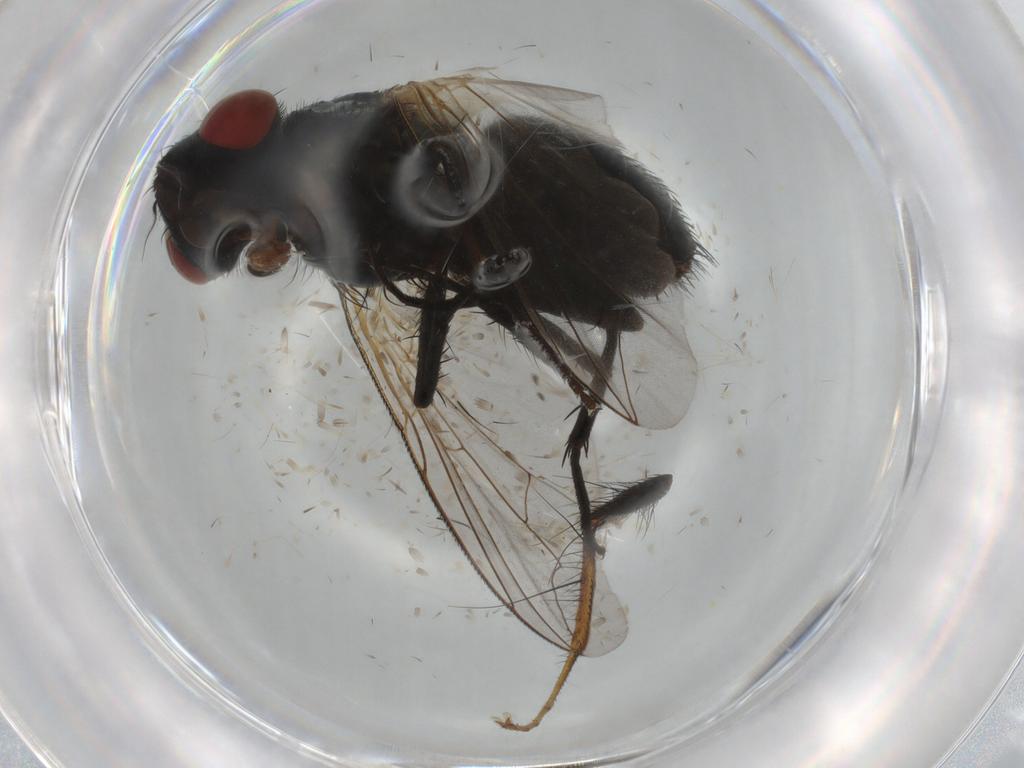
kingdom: Animalia
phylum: Arthropoda
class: Insecta
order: Diptera
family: Sarcophagidae
